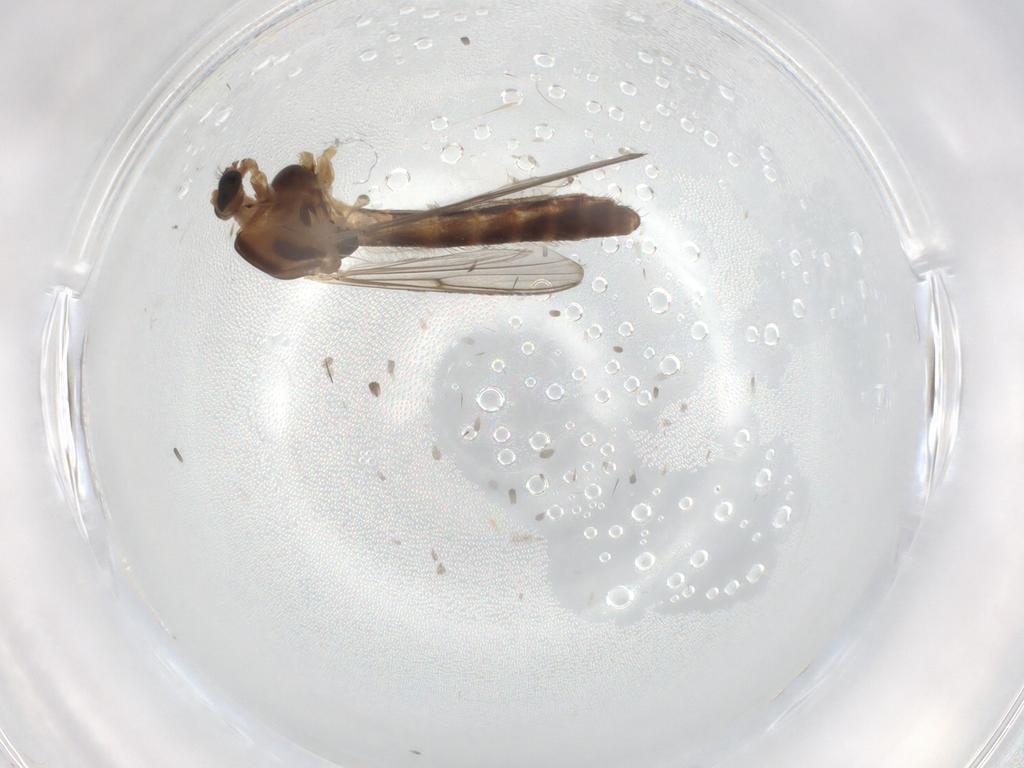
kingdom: Animalia
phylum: Arthropoda
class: Insecta
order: Diptera
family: Chironomidae
